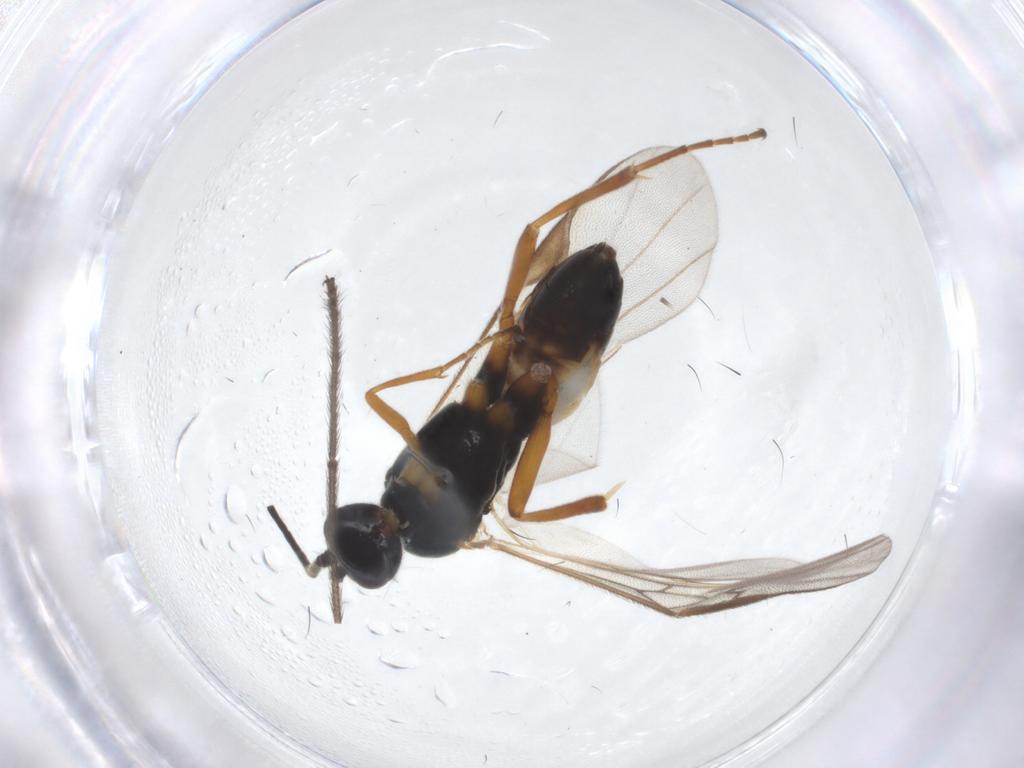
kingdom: Animalia
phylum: Arthropoda
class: Insecta
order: Hymenoptera
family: Braconidae
